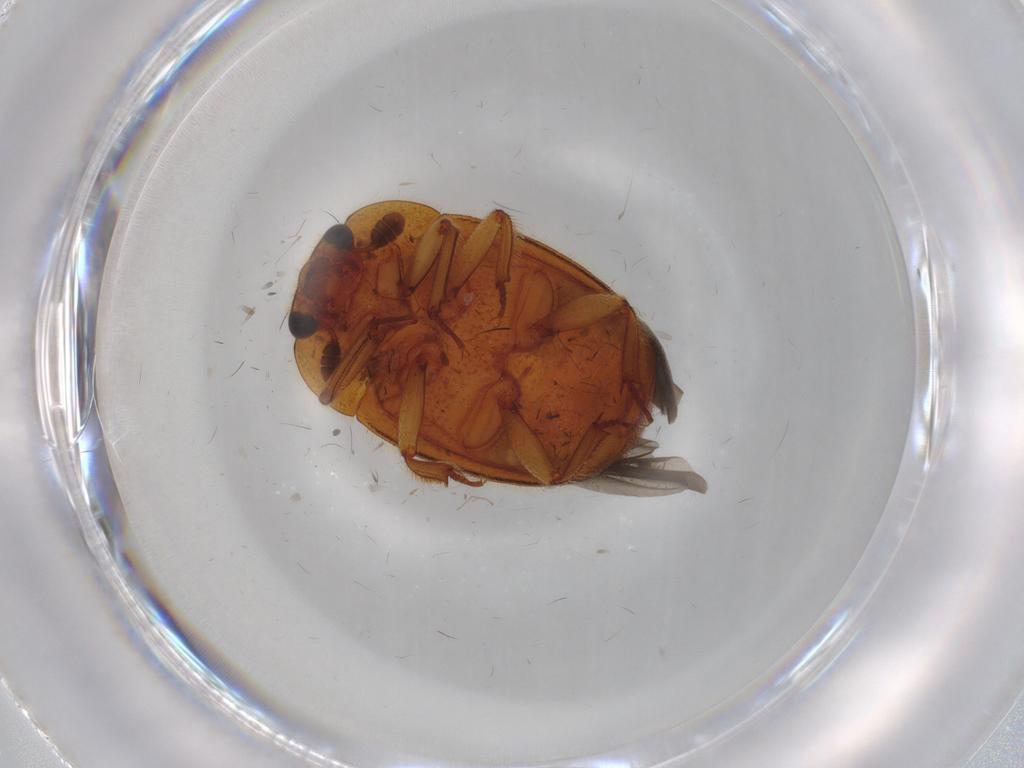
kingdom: Animalia
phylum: Arthropoda
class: Insecta
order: Coleoptera
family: Nitidulidae
